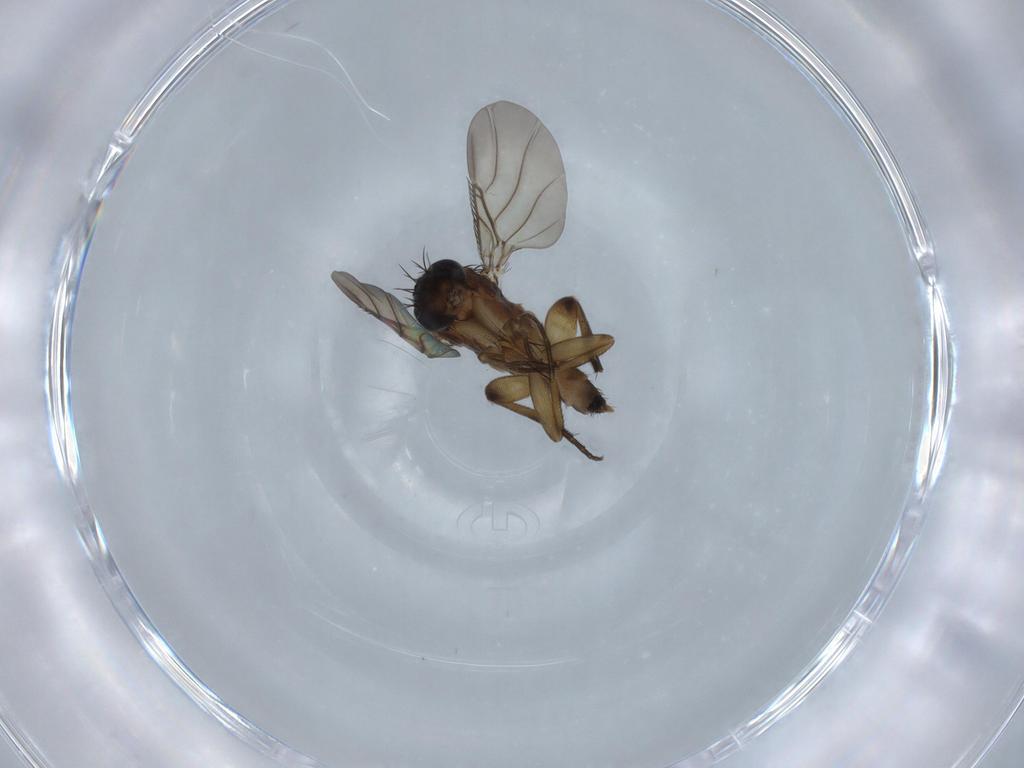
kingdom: Animalia
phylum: Arthropoda
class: Insecta
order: Diptera
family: Phoridae
